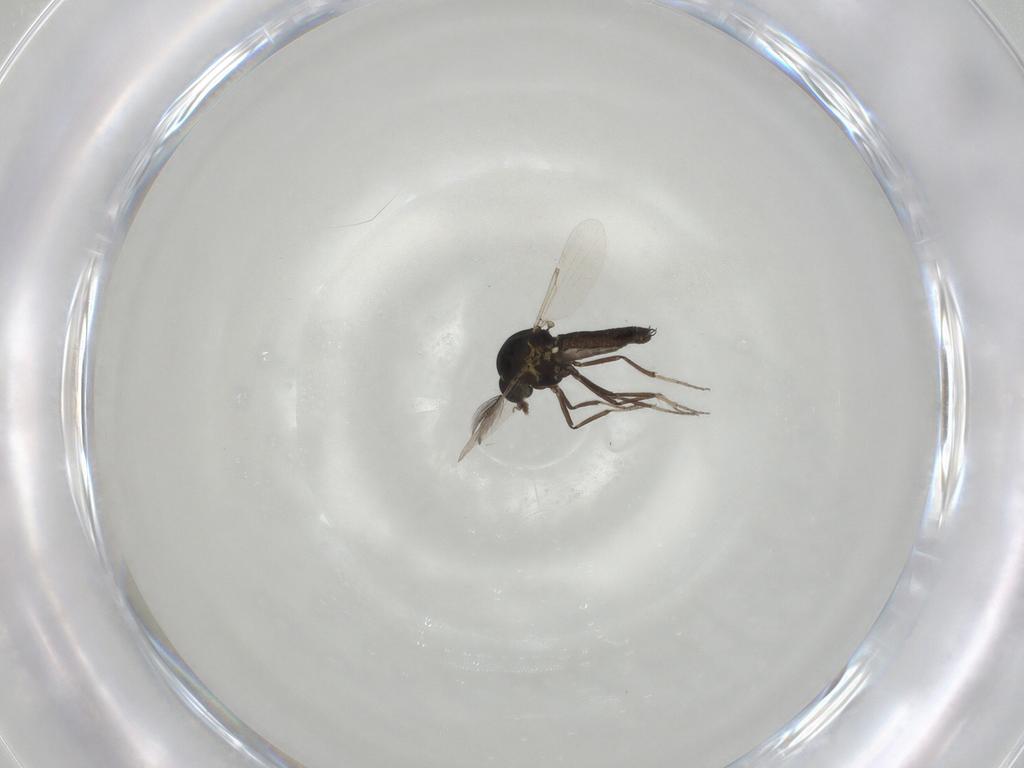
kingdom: Animalia
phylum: Arthropoda
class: Insecta
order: Diptera
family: Ceratopogonidae
